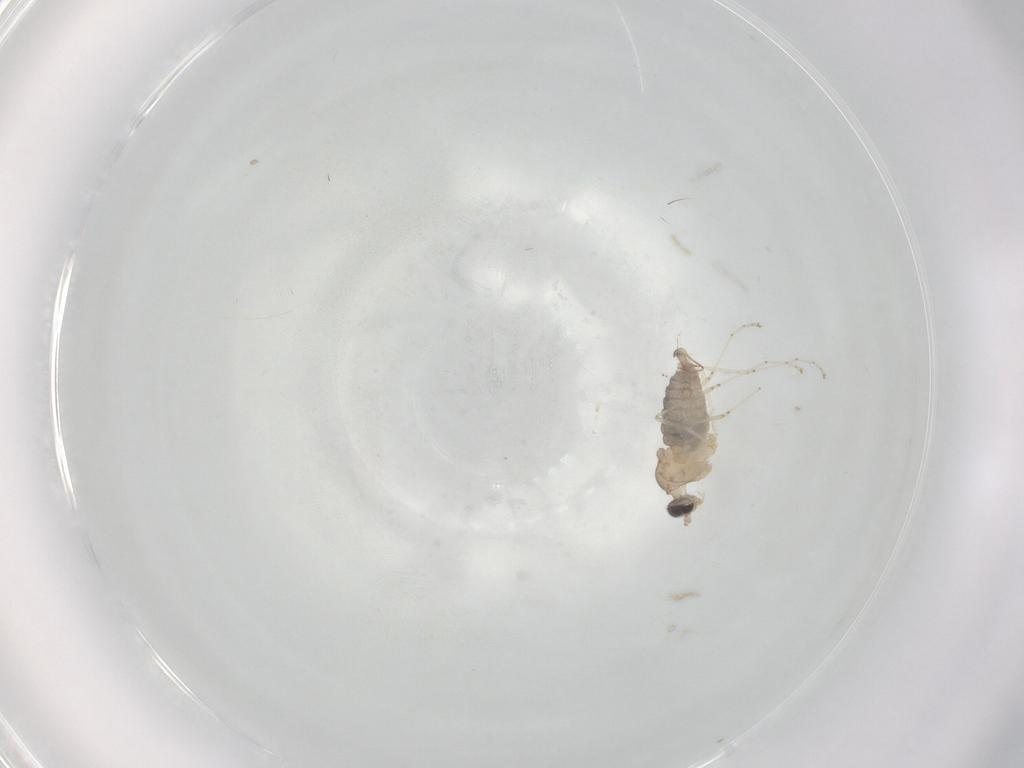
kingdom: Animalia
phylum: Arthropoda
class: Insecta
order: Diptera
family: Cecidomyiidae
